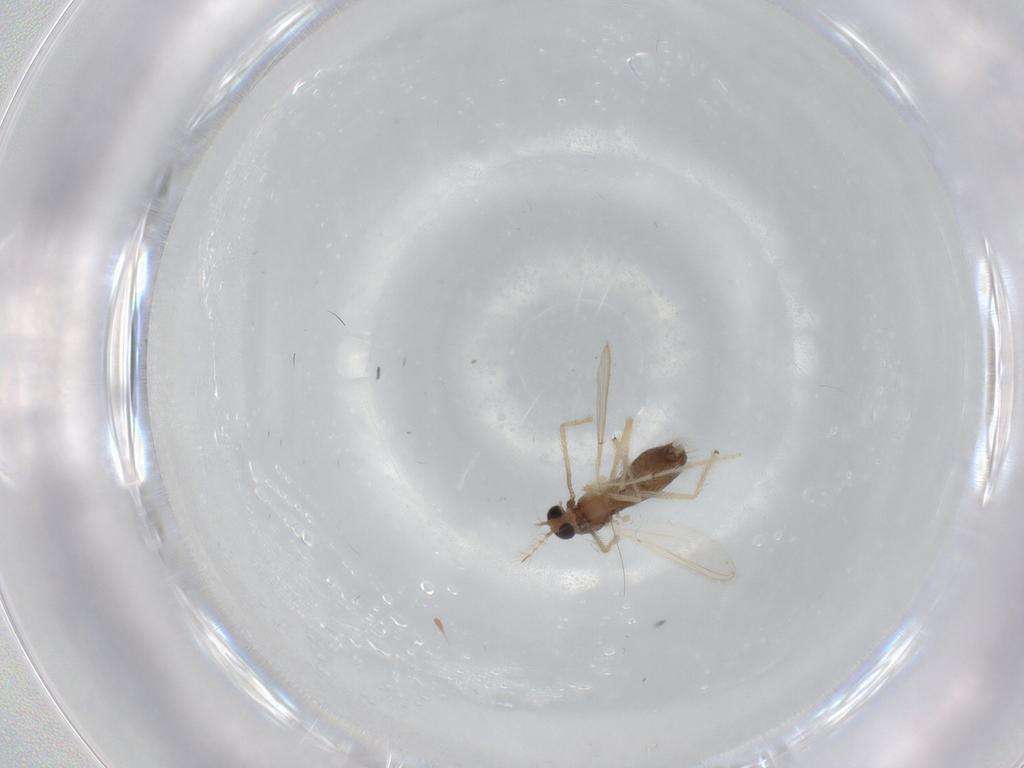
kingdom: Animalia
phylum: Arthropoda
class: Insecta
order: Diptera
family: Chironomidae
